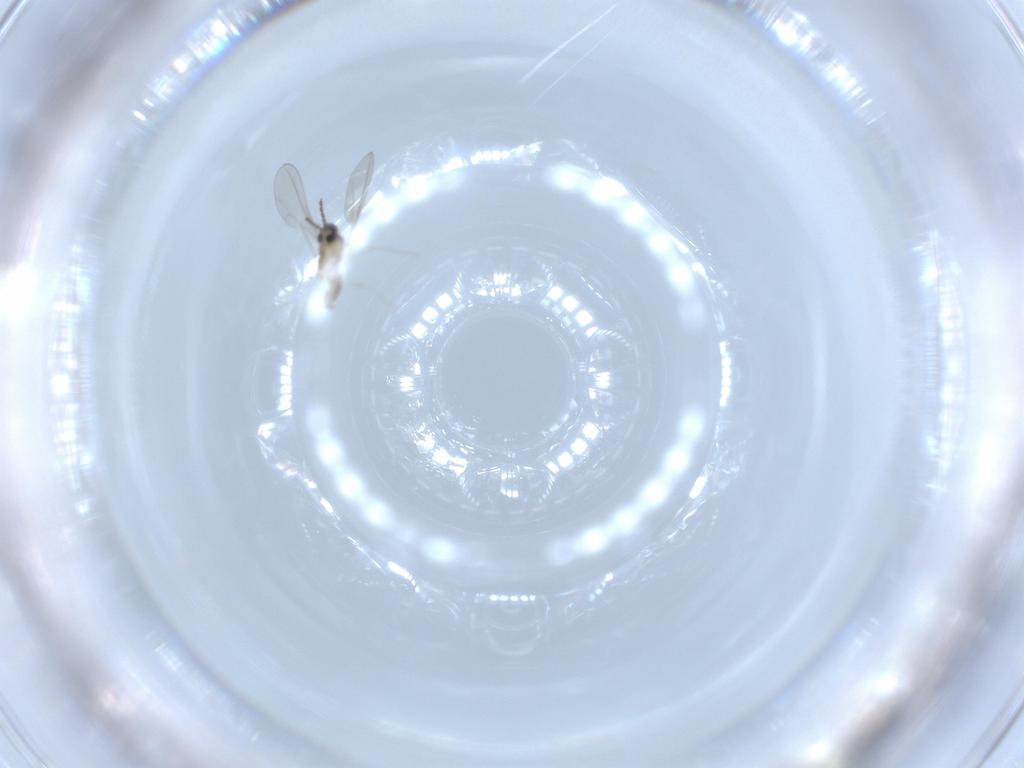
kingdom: Animalia
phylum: Arthropoda
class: Insecta
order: Diptera
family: Cecidomyiidae
